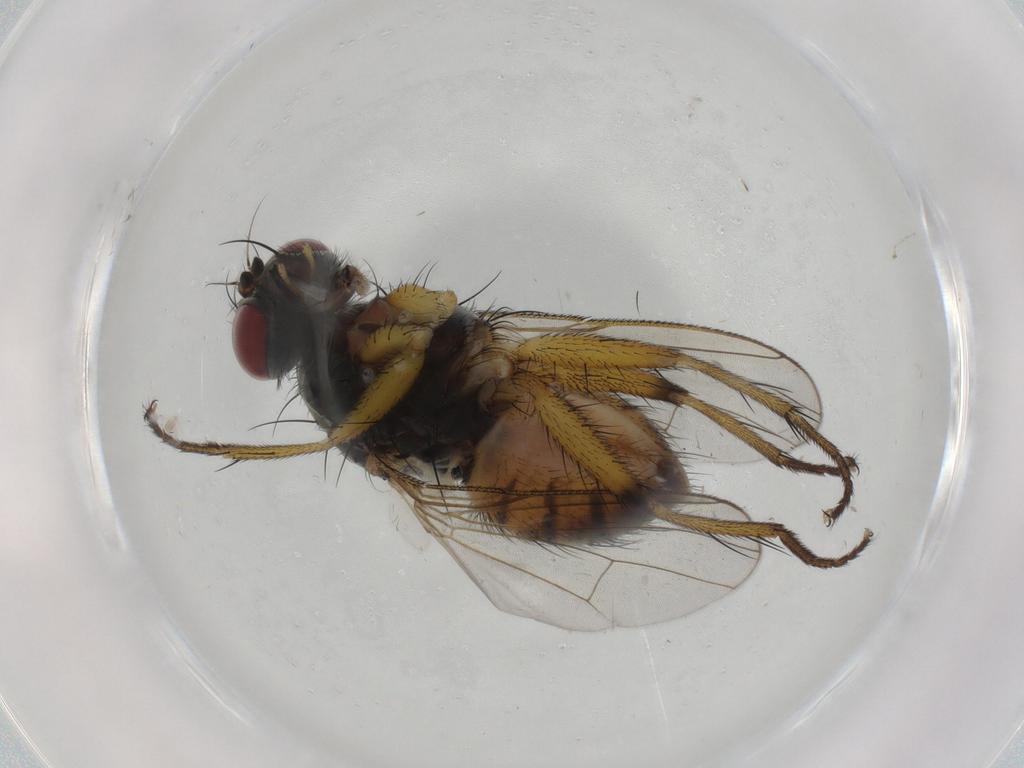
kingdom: Animalia
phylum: Arthropoda
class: Insecta
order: Diptera
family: Muscidae
